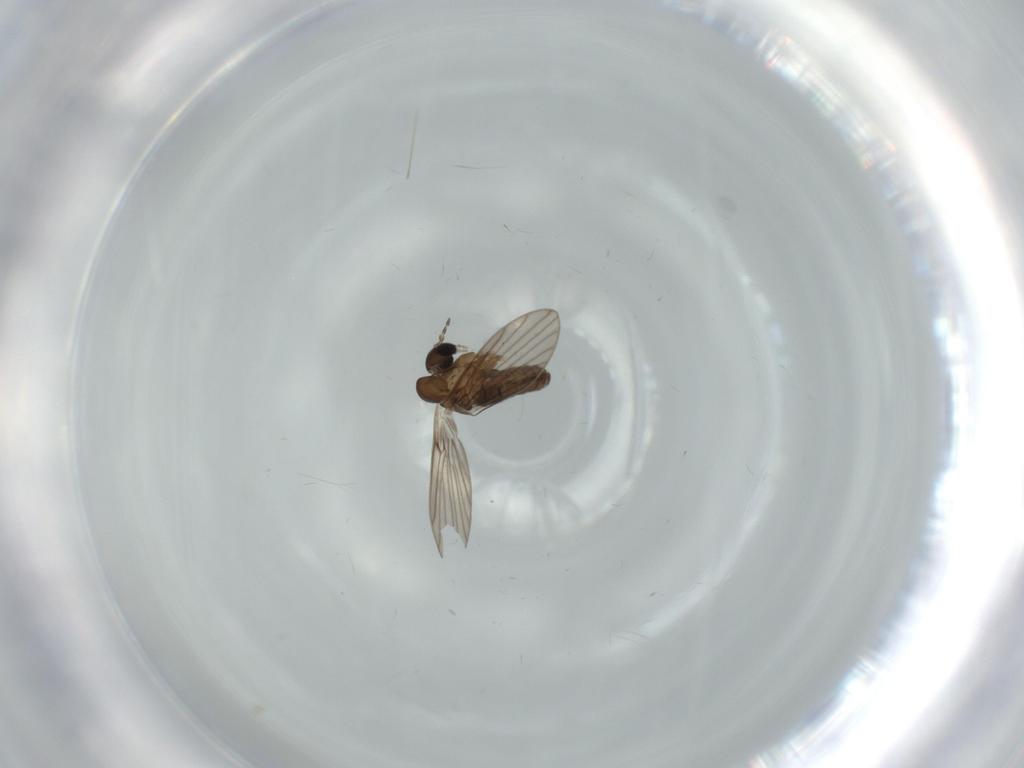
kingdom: Animalia
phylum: Arthropoda
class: Insecta
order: Diptera
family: Psychodidae
